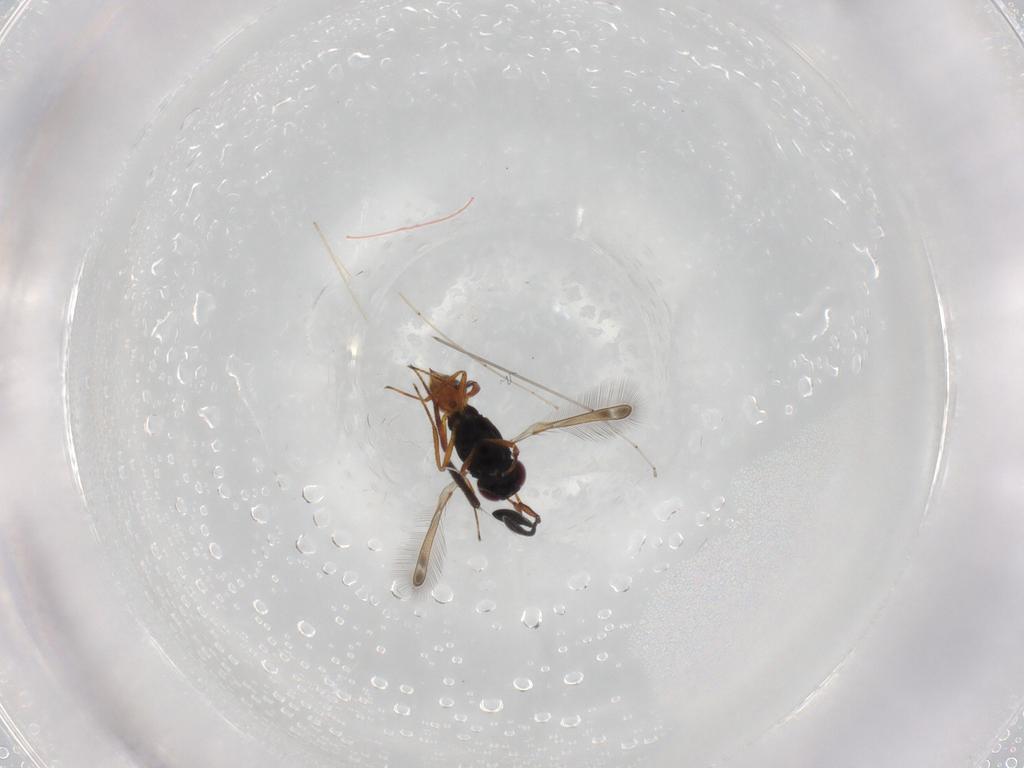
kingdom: Animalia
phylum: Arthropoda
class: Insecta
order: Hymenoptera
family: Mymaridae
